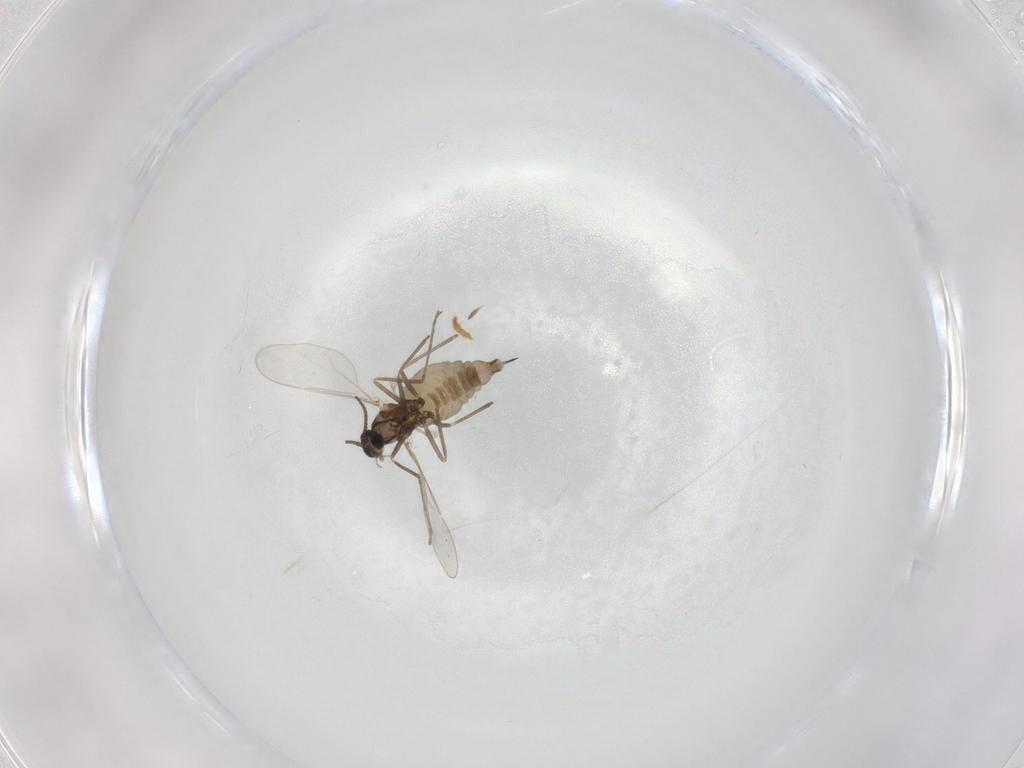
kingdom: Animalia
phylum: Arthropoda
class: Insecta
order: Diptera
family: Cecidomyiidae
